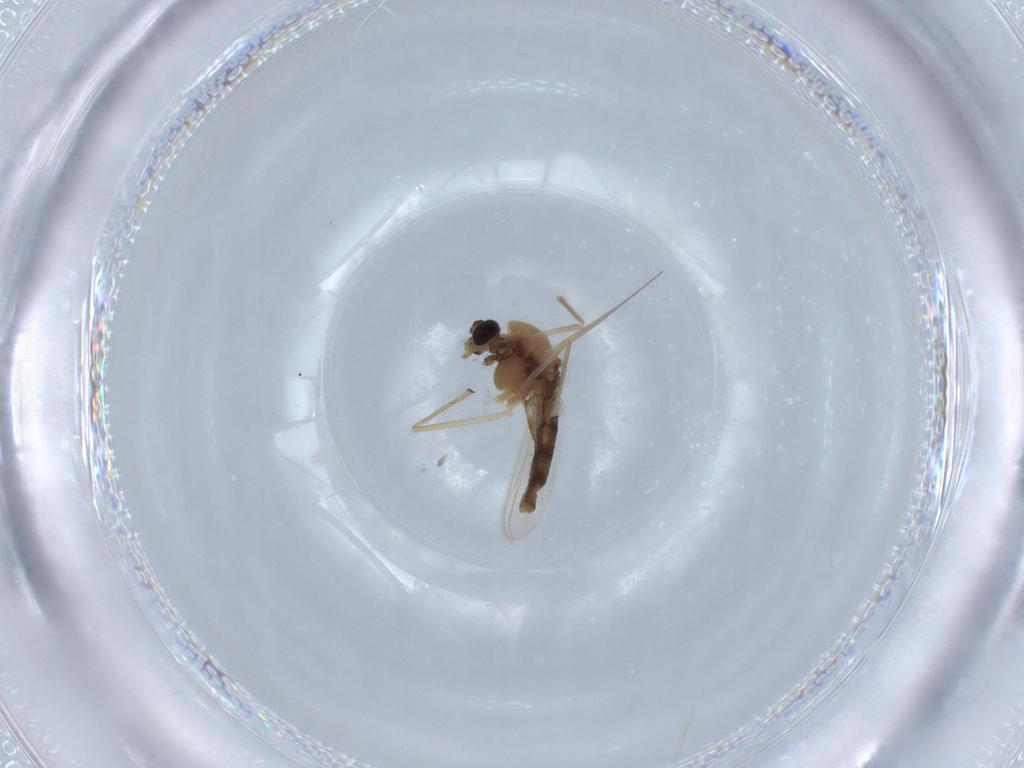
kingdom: Animalia
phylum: Arthropoda
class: Insecta
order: Diptera
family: Chironomidae
